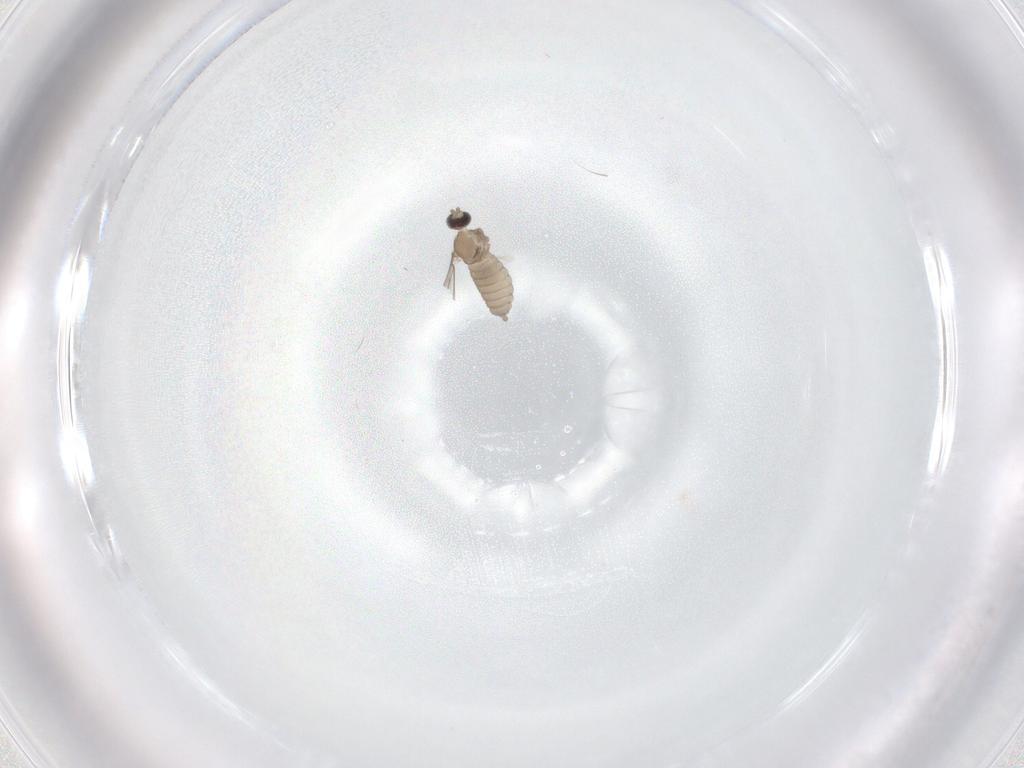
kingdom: Animalia
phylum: Arthropoda
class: Insecta
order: Diptera
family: Cecidomyiidae
